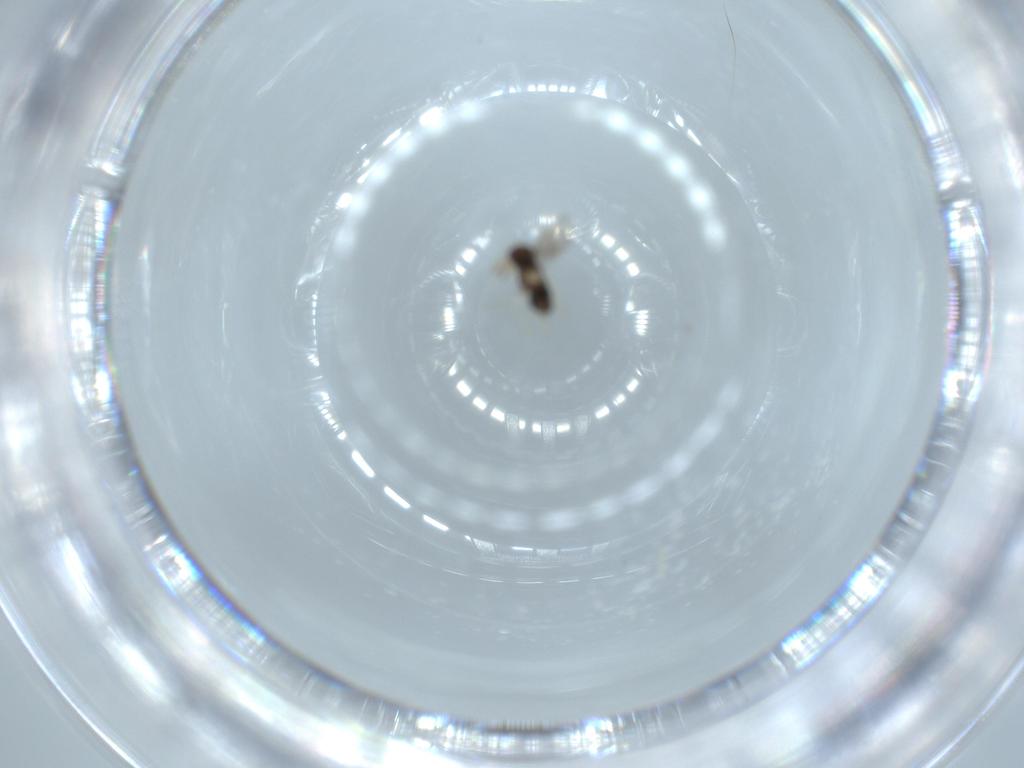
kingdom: Animalia
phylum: Arthropoda
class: Insecta
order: Hymenoptera
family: Aphelinidae
